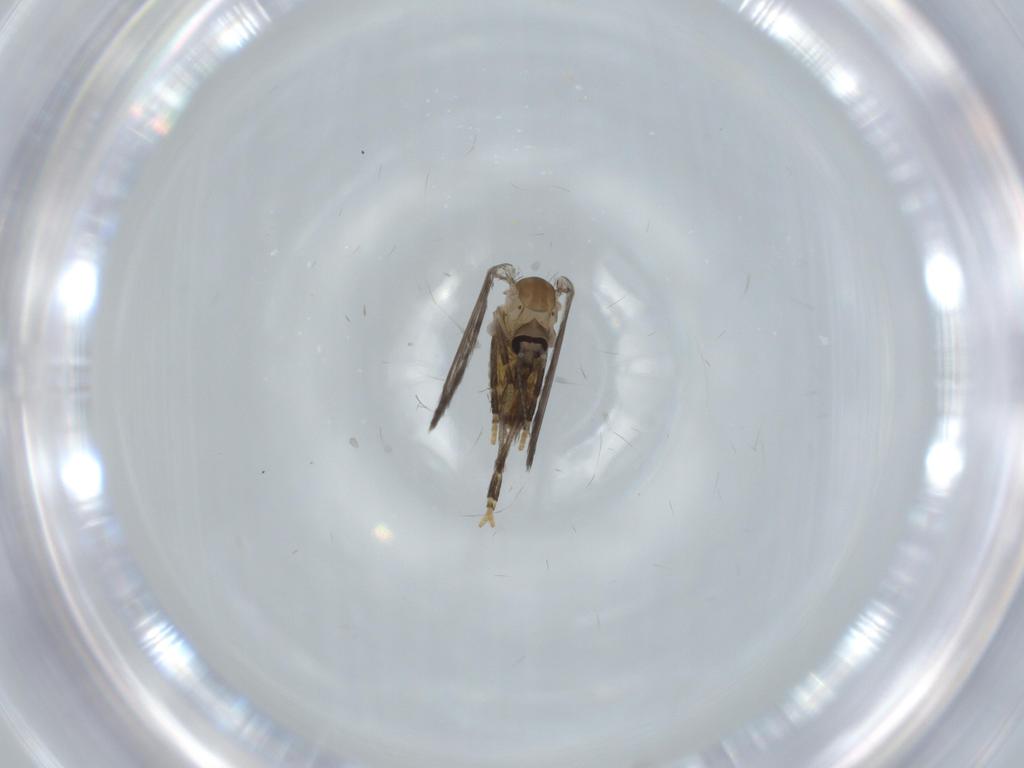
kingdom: Animalia
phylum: Arthropoda
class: Insecta
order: Diptera
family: Psychodidae
